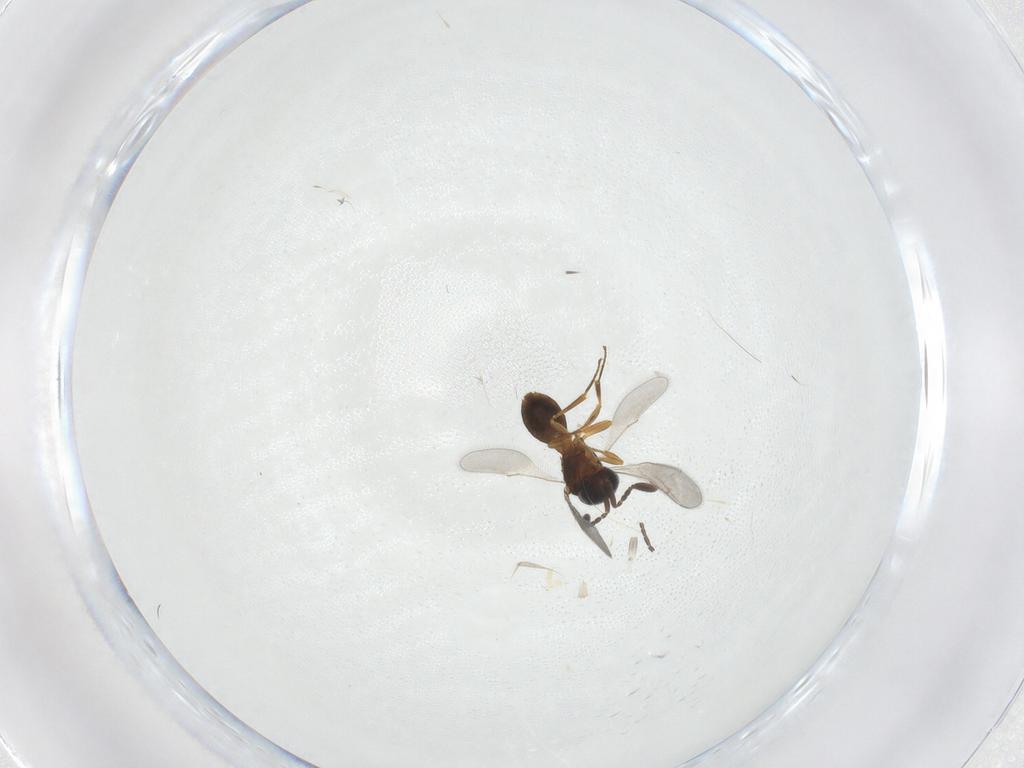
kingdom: Animalia
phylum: Arthropoda
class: Insecta
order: Hymenoptera
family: Scelionidae
